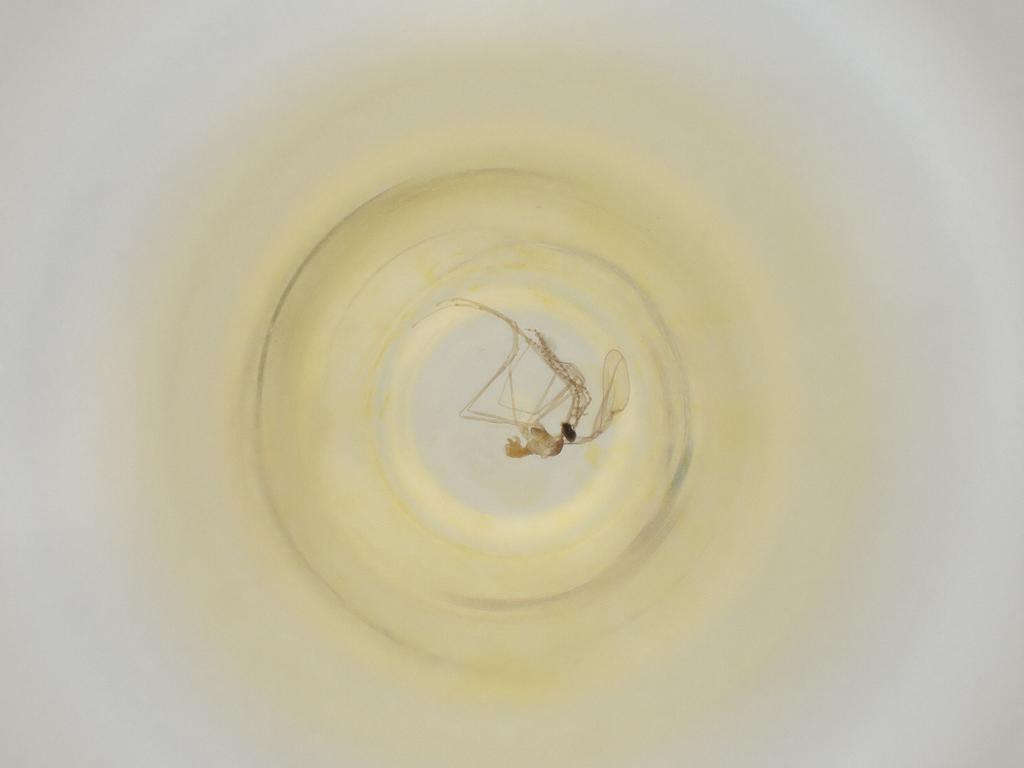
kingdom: Animalia
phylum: Arthropoda
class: Insecta
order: Diptera
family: Cecidomyiidae
